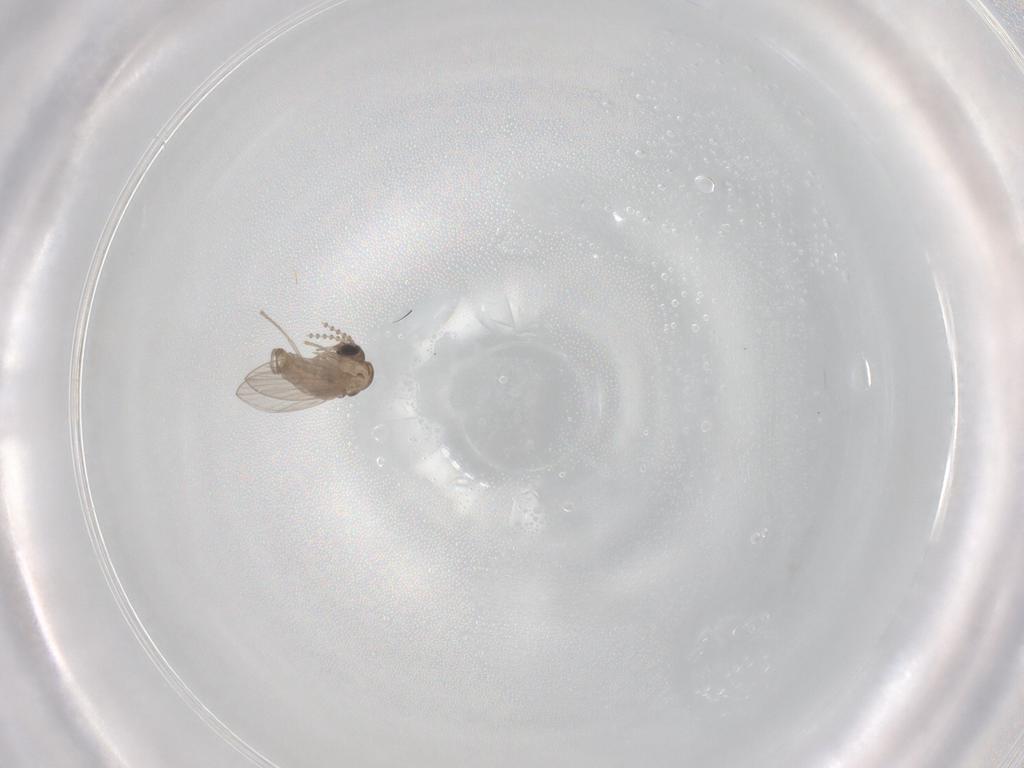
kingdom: Animalia
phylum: Arthropoda
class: Insecta
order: Diptera
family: Psychodidae
